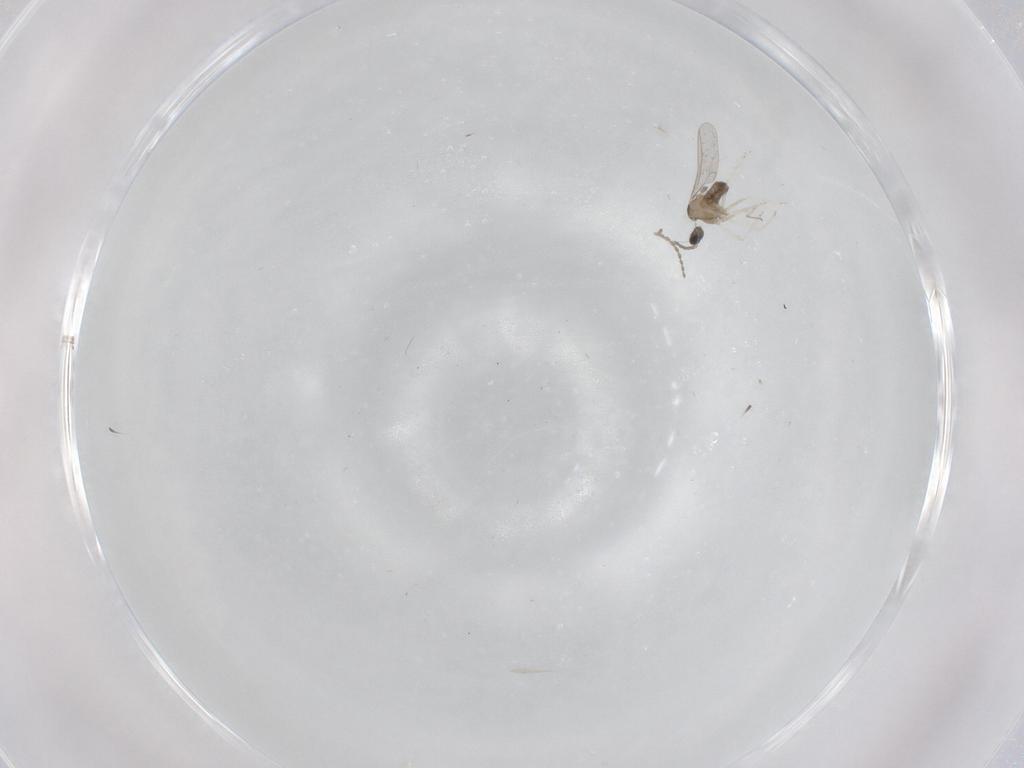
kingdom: Animalia
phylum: Arthropoda
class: Insecta
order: Diptera
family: Cecidomyiidae
